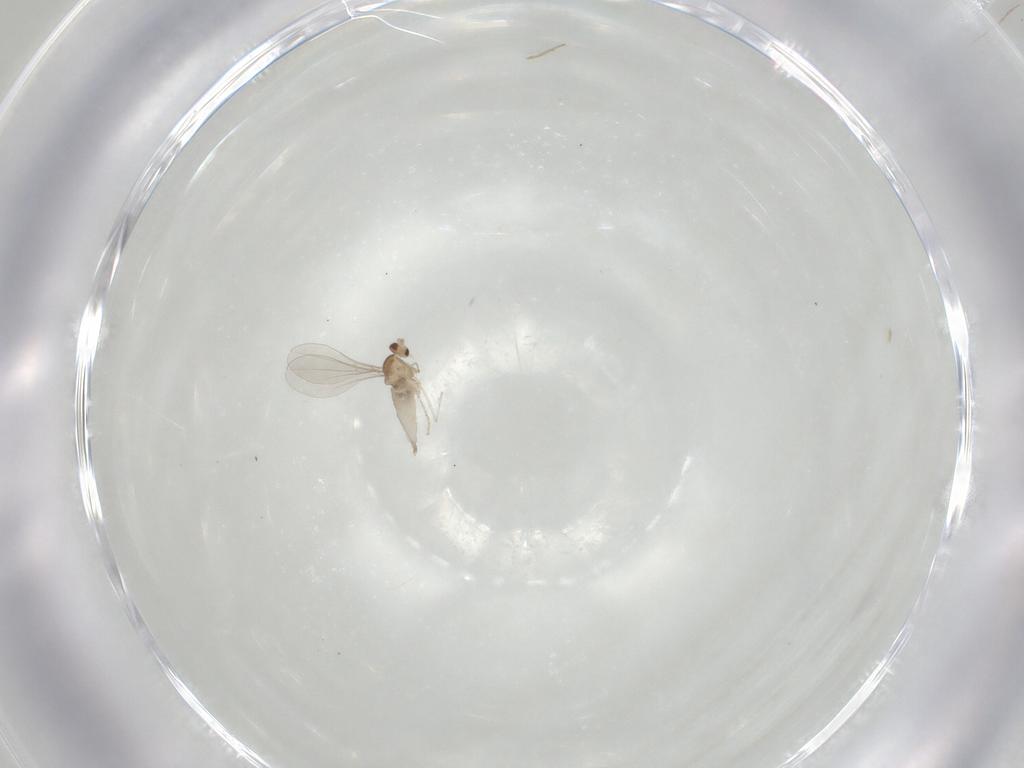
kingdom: Animalia
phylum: Arthropoda
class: Insecta
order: Diptera
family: Chironomidae
